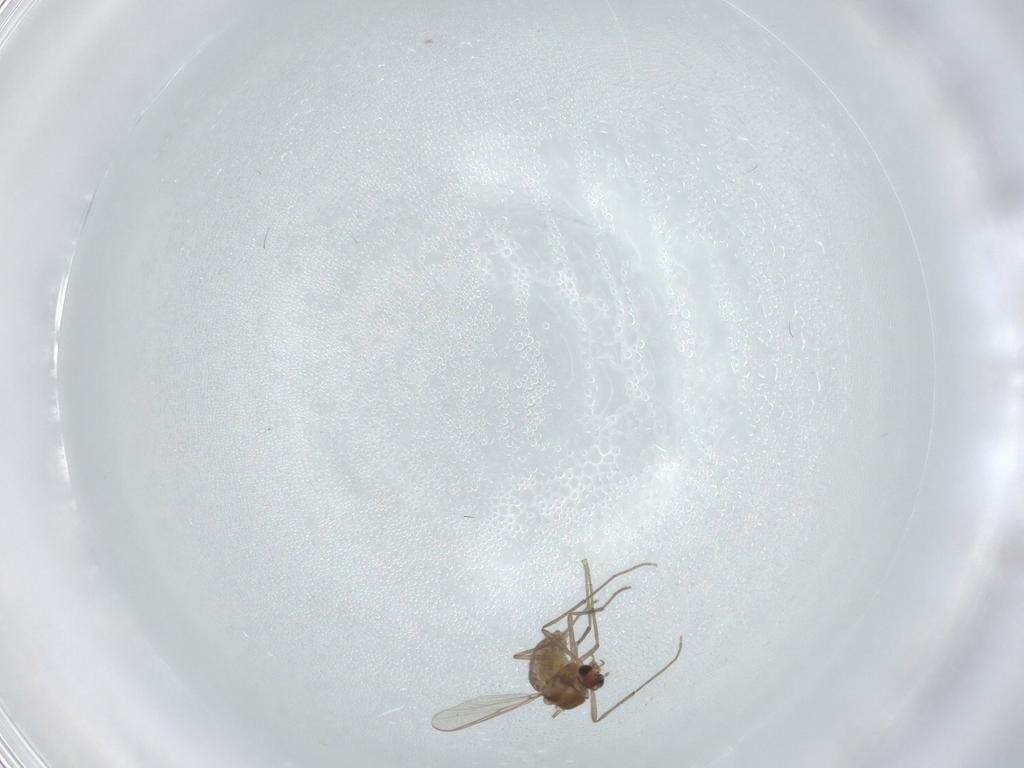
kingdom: Animalia
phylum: Arthropoda
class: Insecta
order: Diptera
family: Chironomidae
